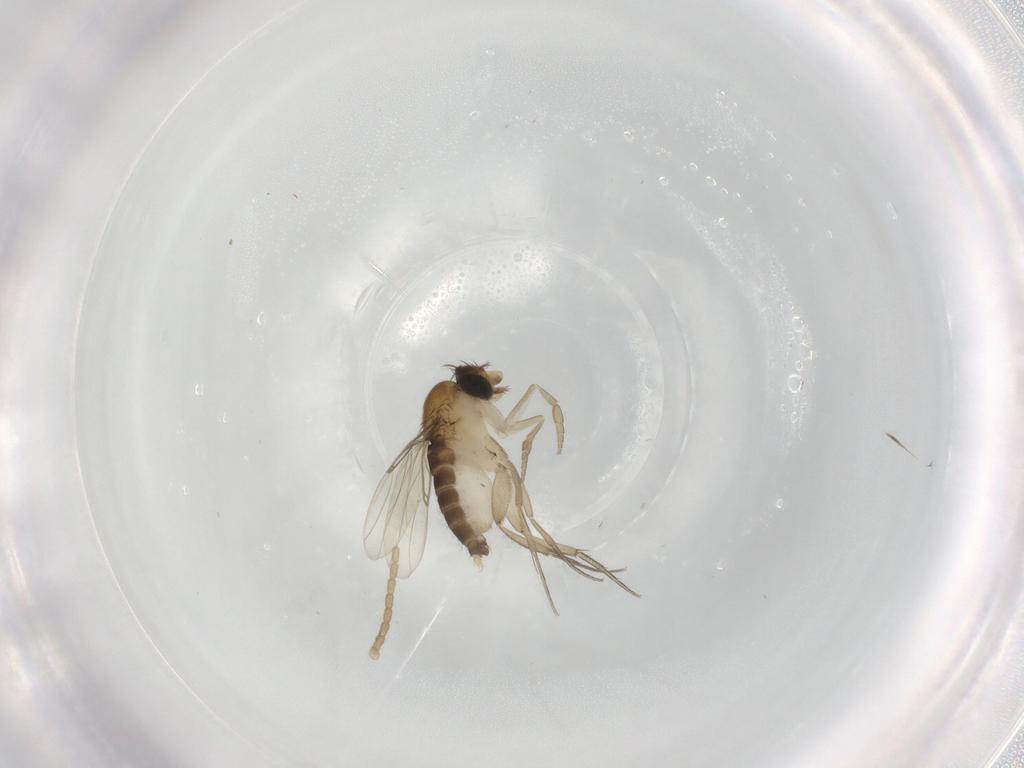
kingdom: Animalia
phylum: Arthropoda
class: Insecta
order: Diptera
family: Phoridae
